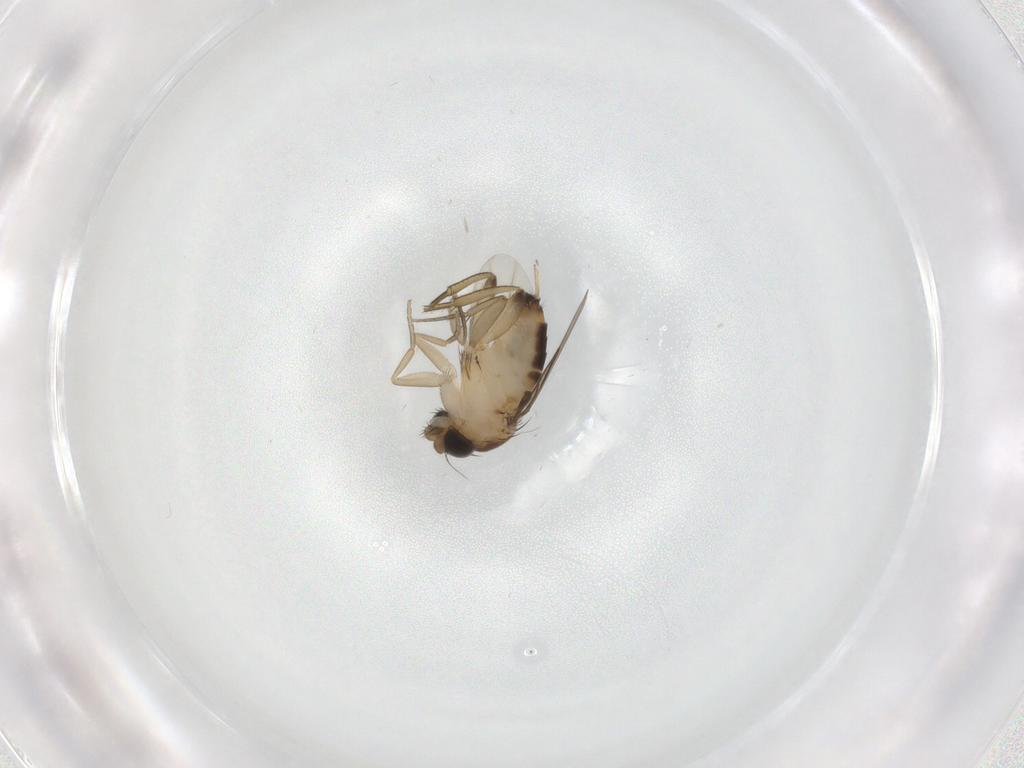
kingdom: Animalia
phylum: Arthropoda
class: Insecta
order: Diptera
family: Phoridae
